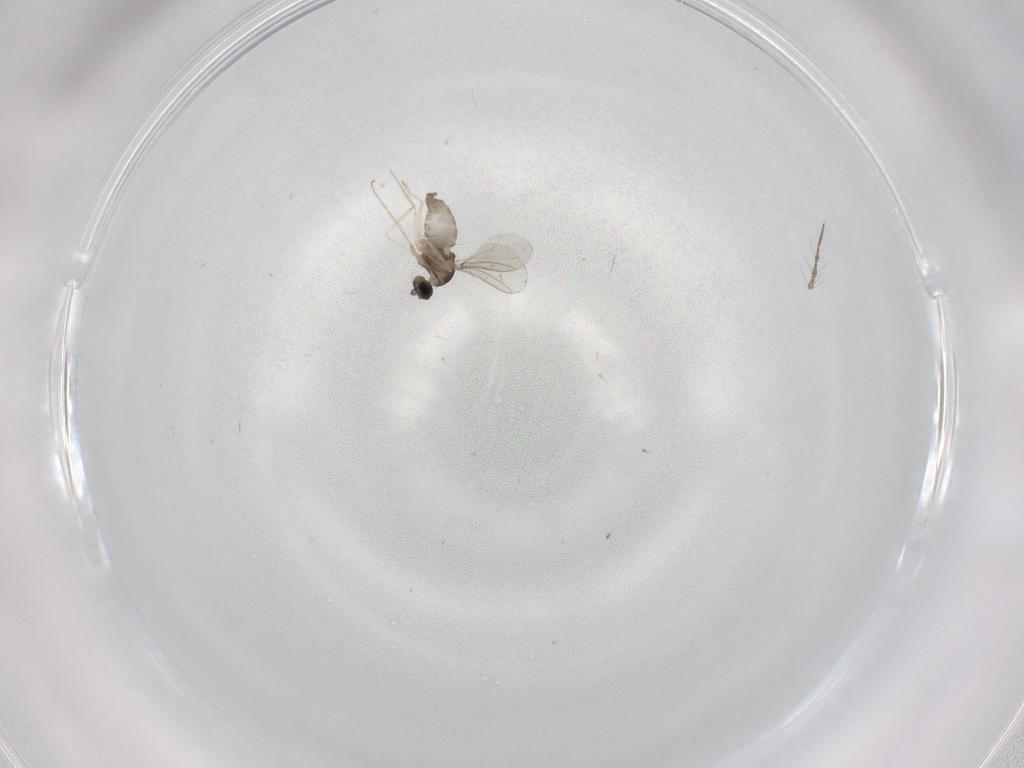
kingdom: Animalia
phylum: Arthropoda
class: Insecta
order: Diptera
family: Cecidomyiidae
